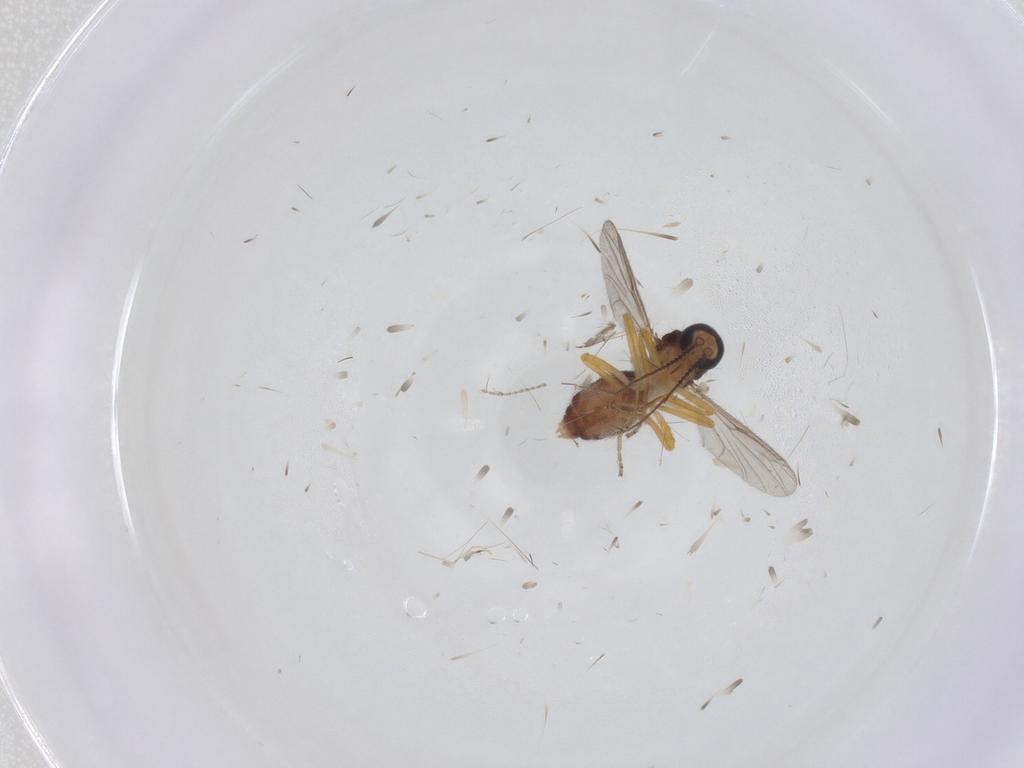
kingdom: Animalia
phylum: Arthropoda
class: Insecta
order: Diptera
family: Ceratopogonidae
